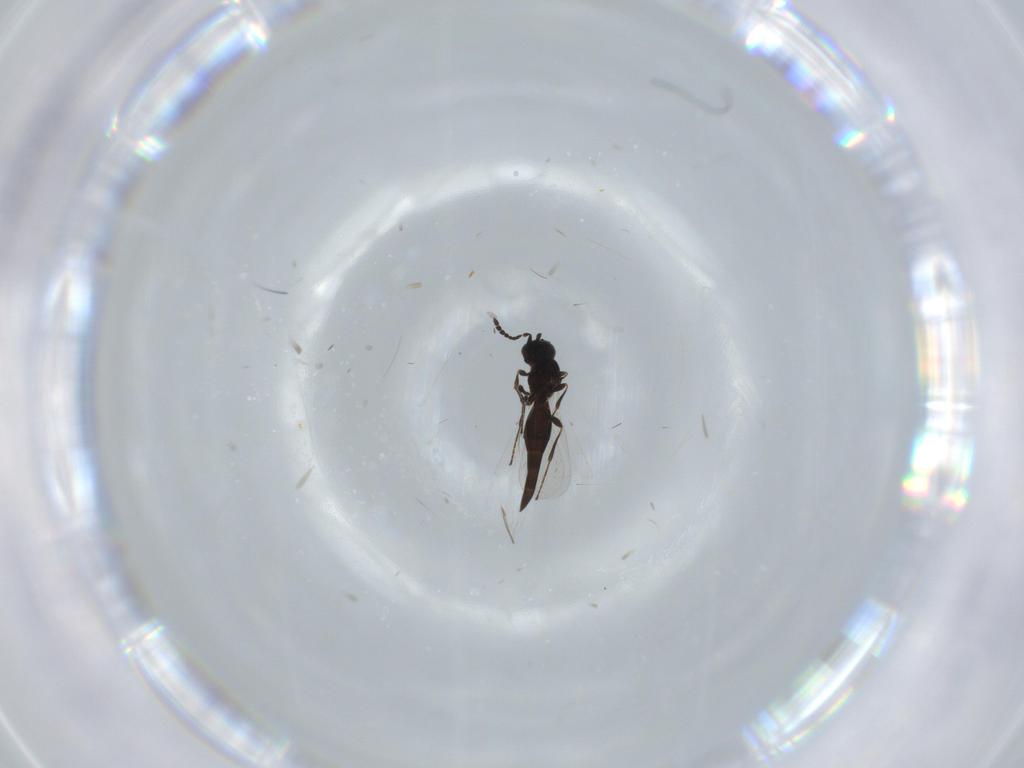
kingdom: Animalia
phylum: Arthropoda
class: Insecta
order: Hymenoptera
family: Platygastridae
